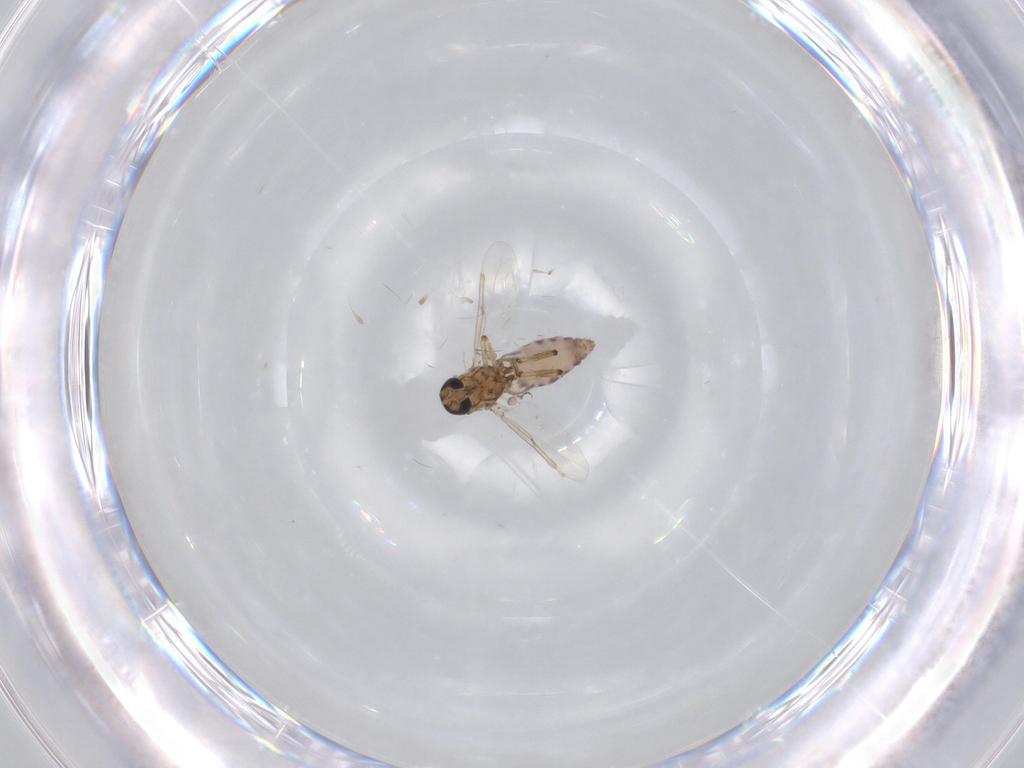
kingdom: Animalia
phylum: Arthropoda
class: Insecta
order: Diptera
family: Ceratopogonidae
